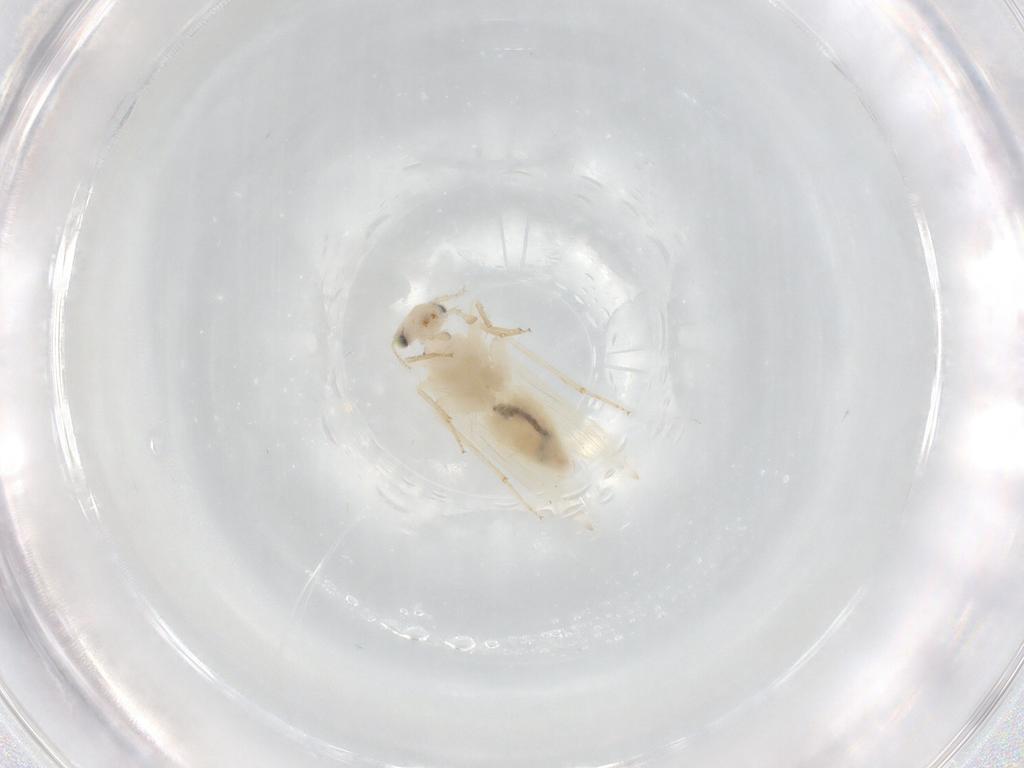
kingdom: Animalia
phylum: Arthropoda
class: Insecta
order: Psocodea
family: Lepidopsocidae
